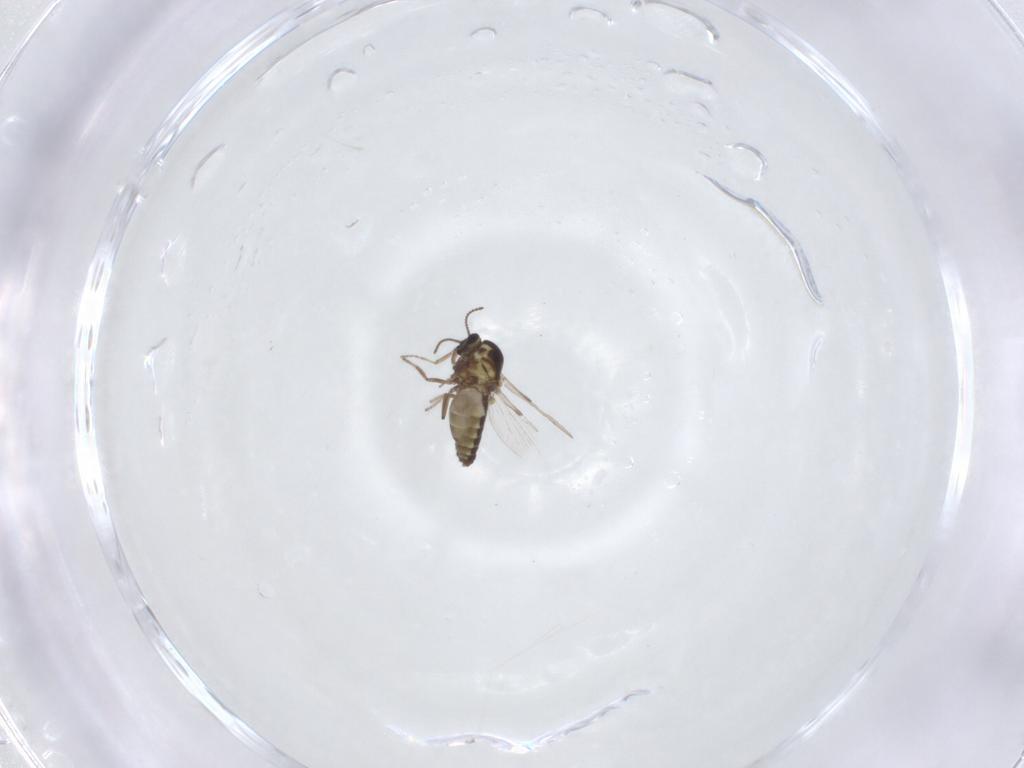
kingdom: Animalia
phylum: Arthropoda
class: Insecta
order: Diptera
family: Ceratopogonidae
